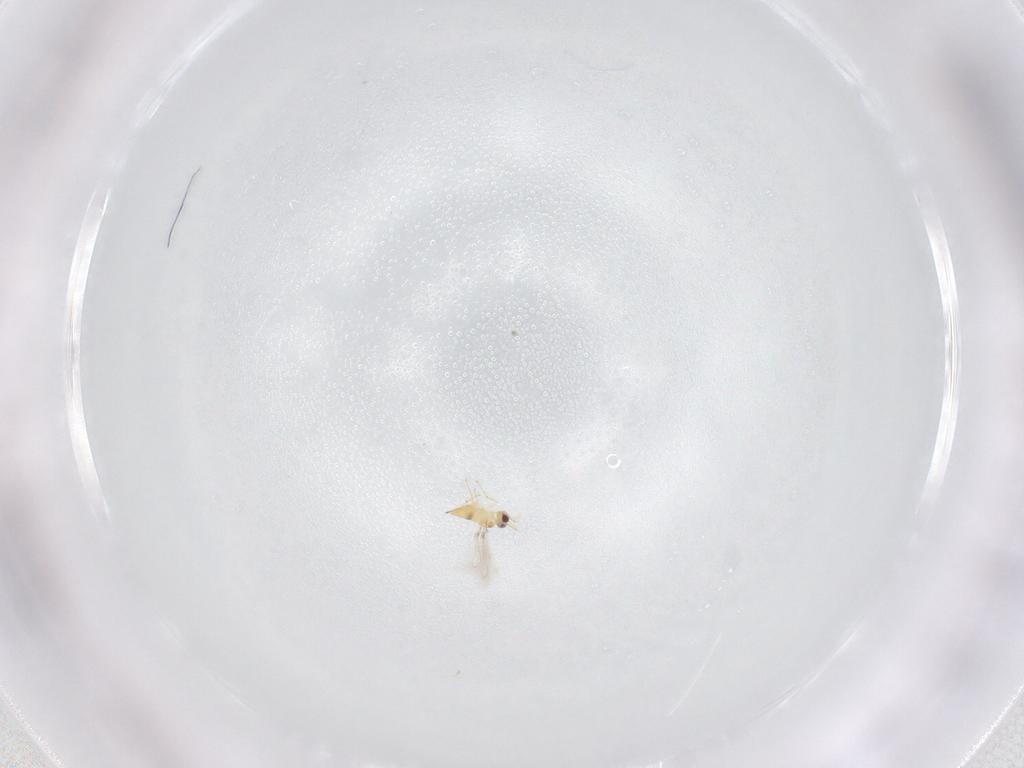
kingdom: Animalia
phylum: Arthropoda
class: Insecta
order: Hymenoptera
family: Mymaridae
